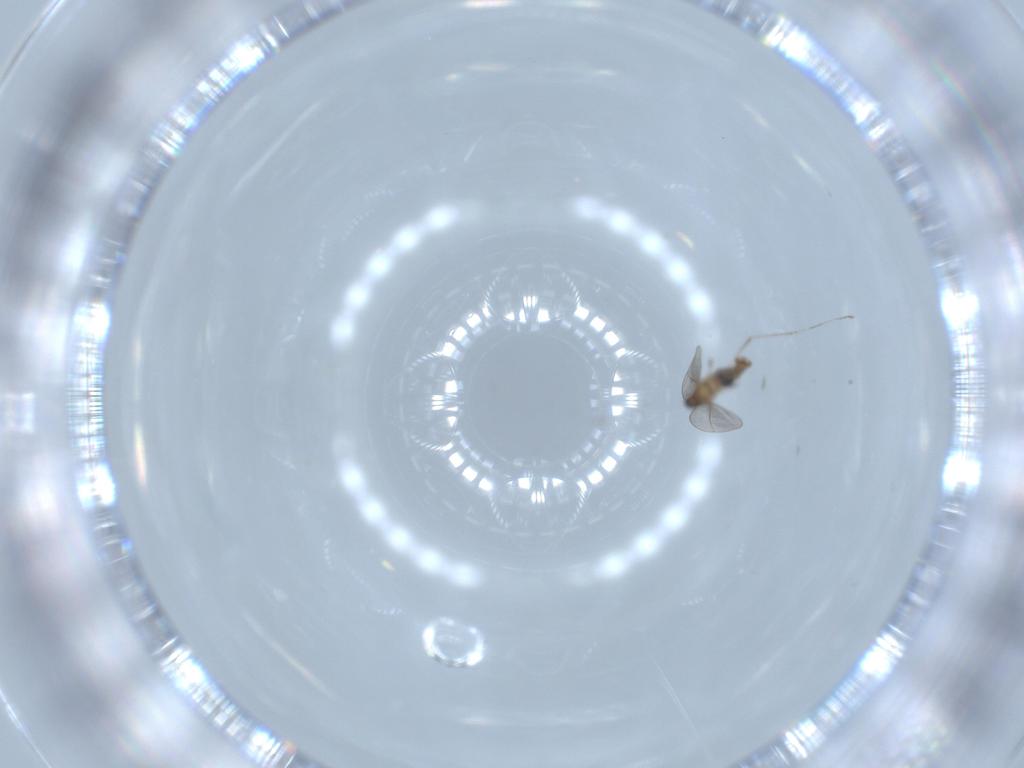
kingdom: Animalia
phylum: Arthropoda
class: Insecta
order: Diptera
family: Cecidomyiidae
